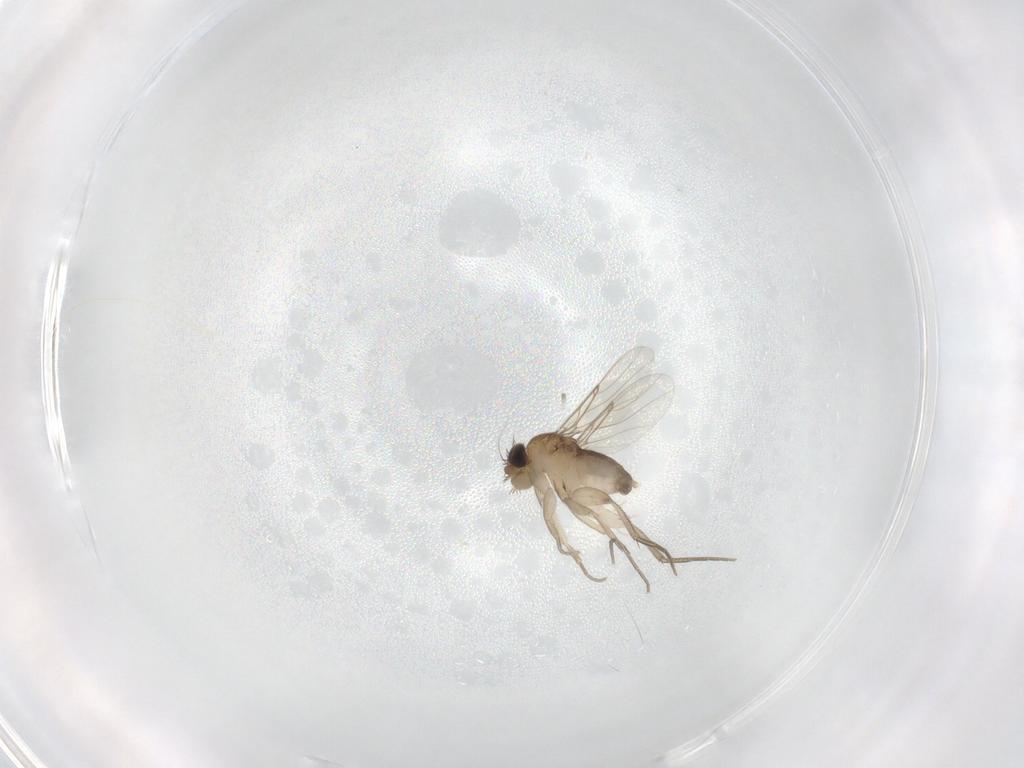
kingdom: Animalia
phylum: Arthropoda
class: Insecta
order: Diptera
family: Phoridae
